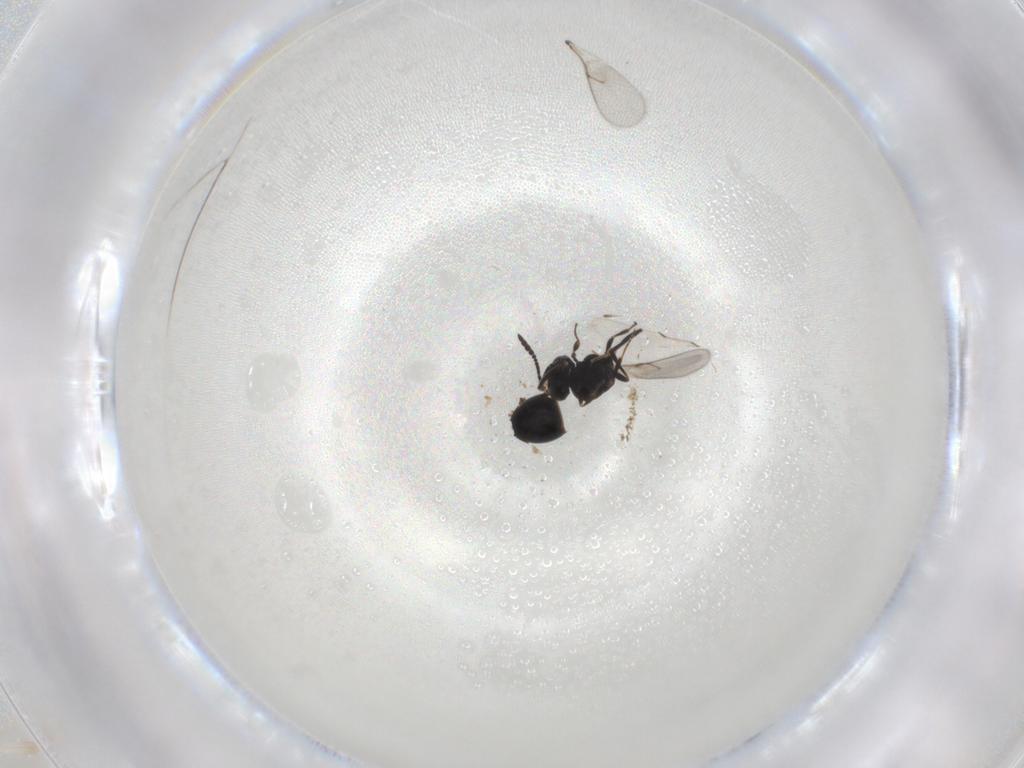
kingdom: Animalia
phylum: Arthropoda
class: Insecta
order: Hymenoptera
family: Scelionidae
